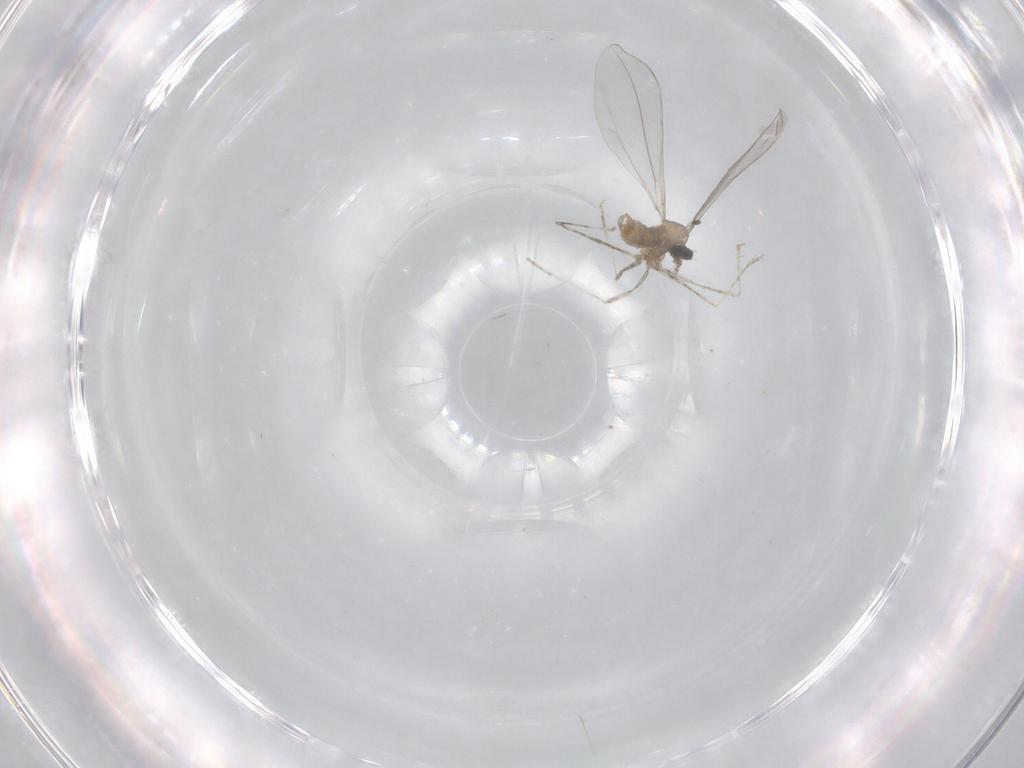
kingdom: Animalia
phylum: Arthropoda
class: Insecta
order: Diptera
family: Cecidomyiidae
